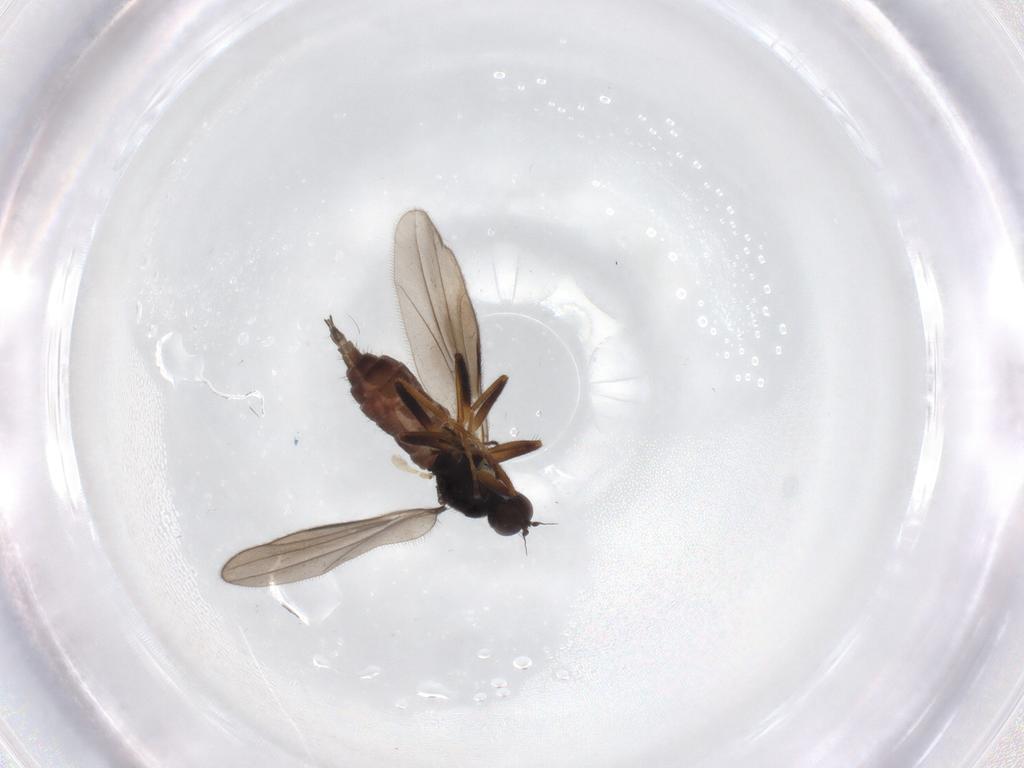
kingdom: Animalia
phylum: Arthropoda
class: Insecta
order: Diptera
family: Hybotidae
